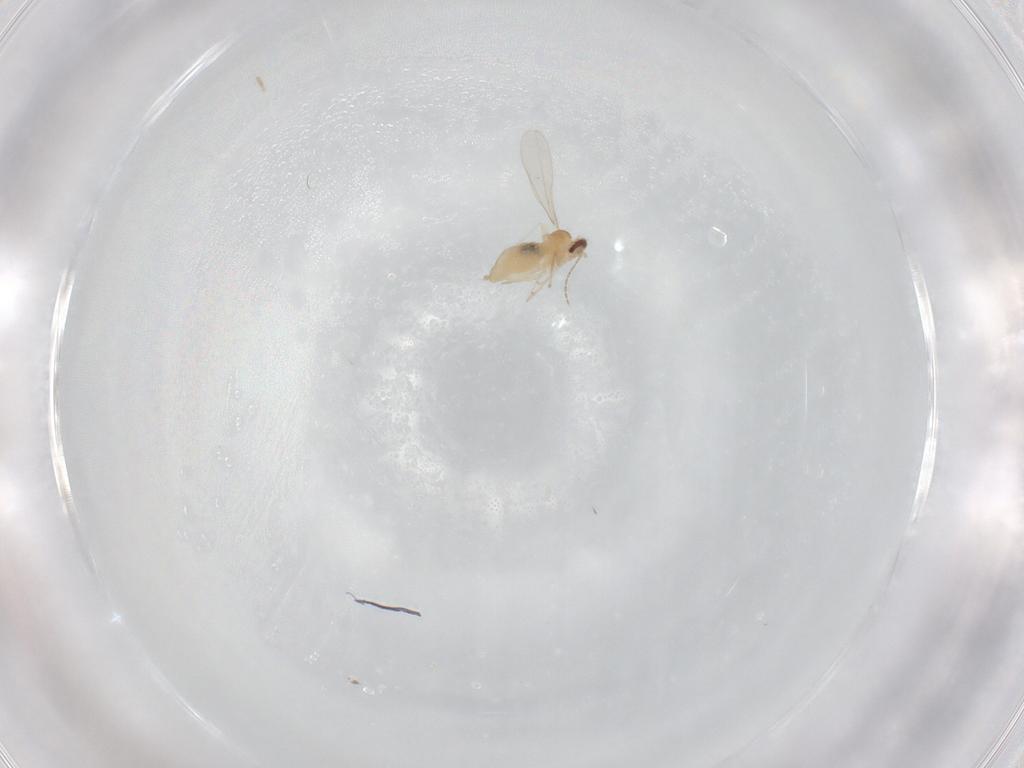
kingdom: Animalia
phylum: Arthropoda
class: Insecta
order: Diptera
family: Cecidomyiidae
